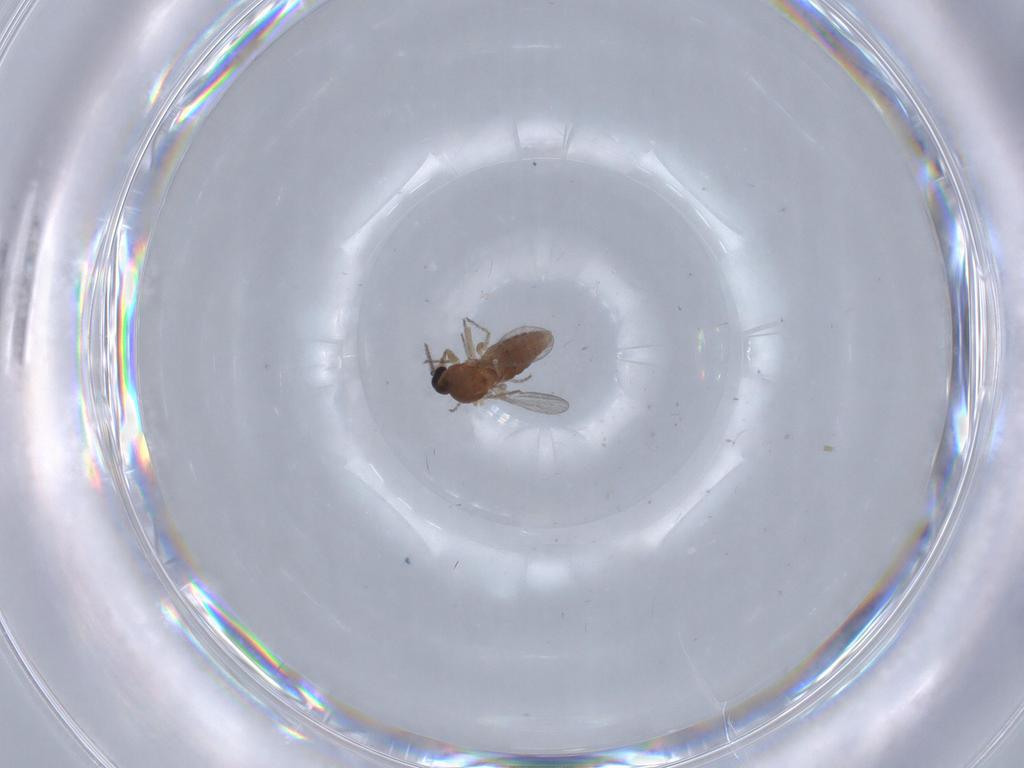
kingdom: Animalia
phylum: Arthropoda
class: Insecta
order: Diptera
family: Ceratopogonidae
